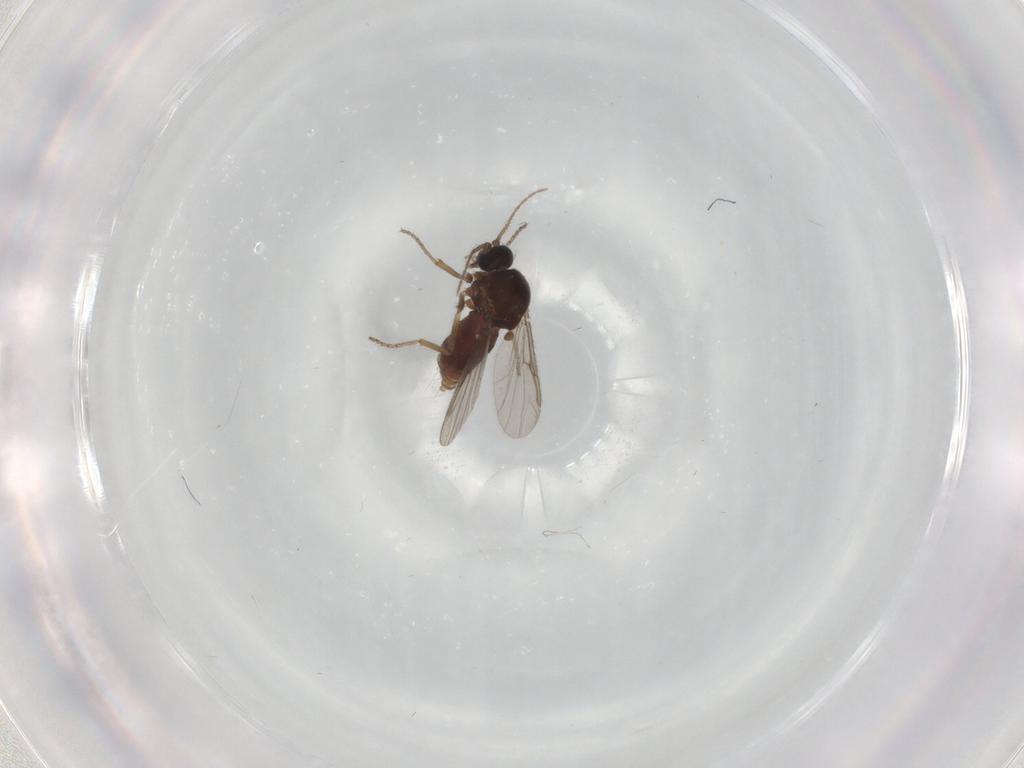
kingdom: Animalia
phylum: Arthropoda
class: Insecta
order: Diptera
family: Ceratopogonidae
